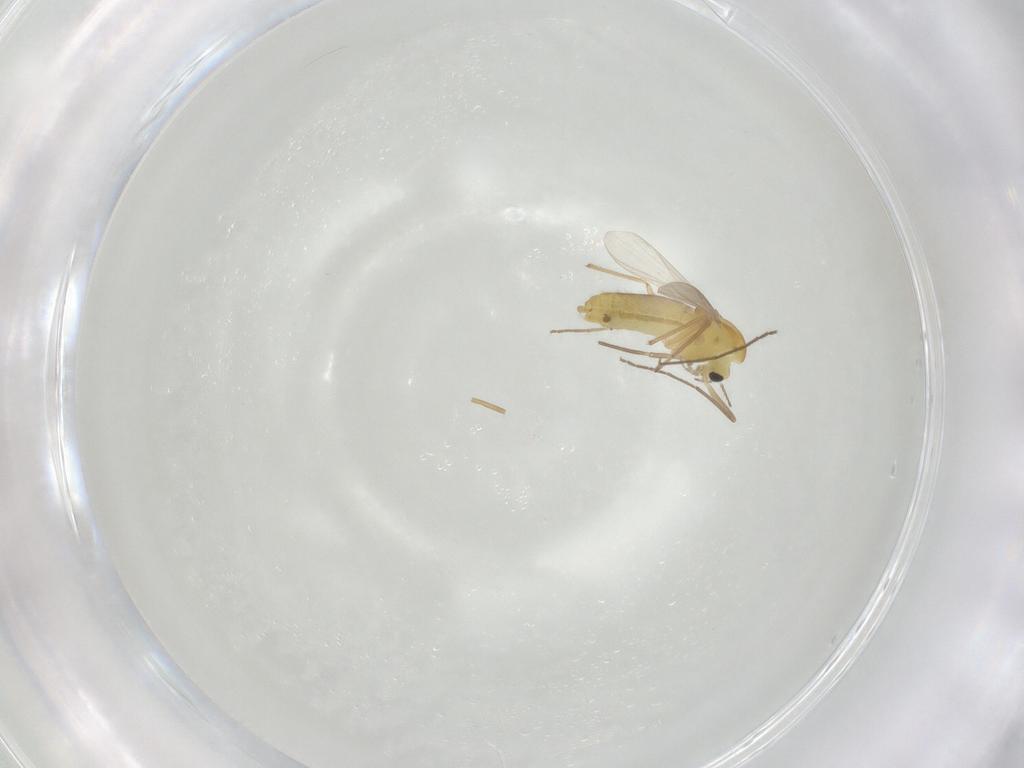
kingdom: Animalia
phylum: Arthropoda
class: Insecta
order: Diptera
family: Chironomidae
